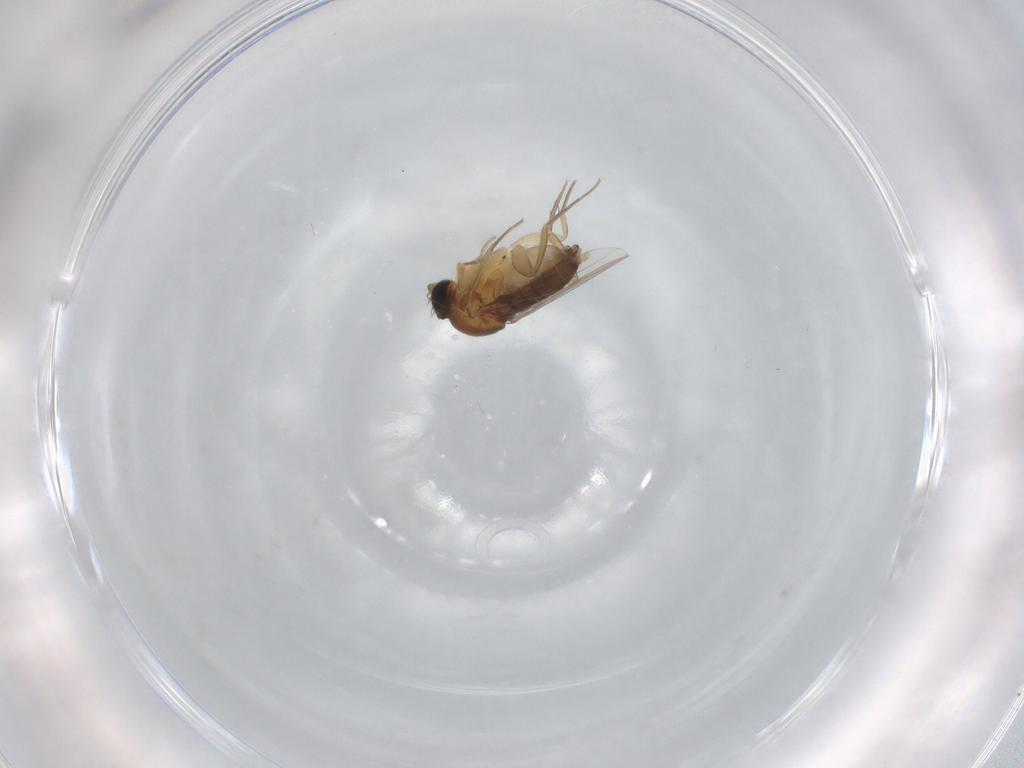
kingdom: Animalia
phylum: Arthropoda
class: Insecta
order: Diptera
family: Phoridae
